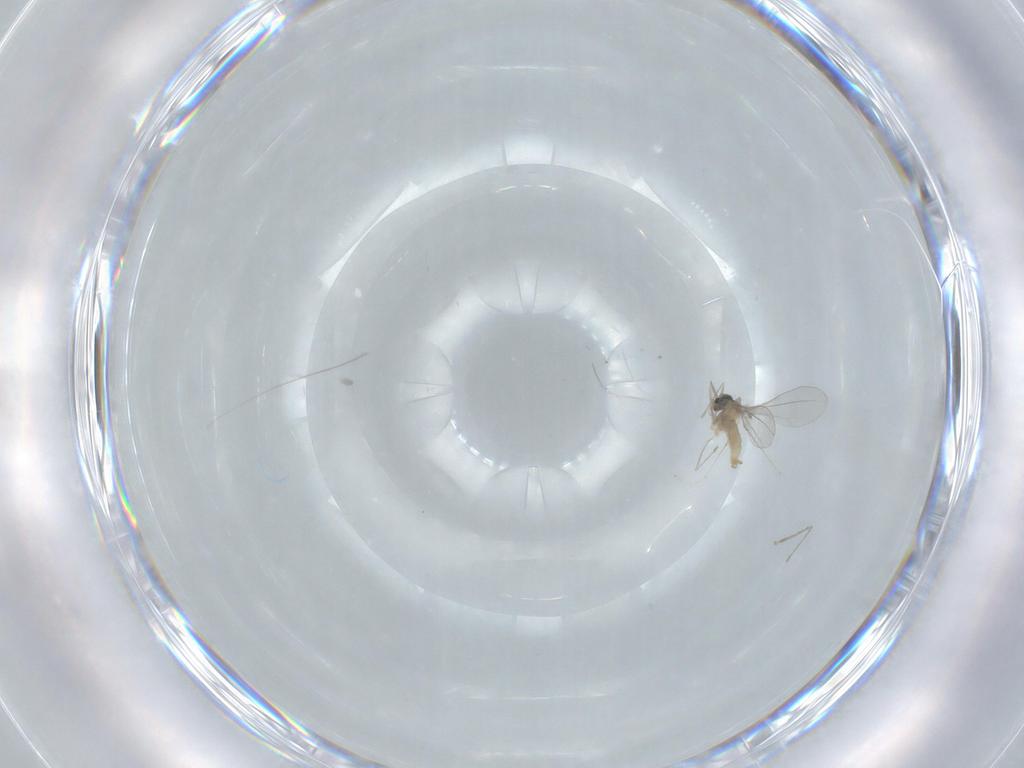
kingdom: Animalia
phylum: Arthropoda
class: Insecta
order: Diptera
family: Cecidomyiidae
